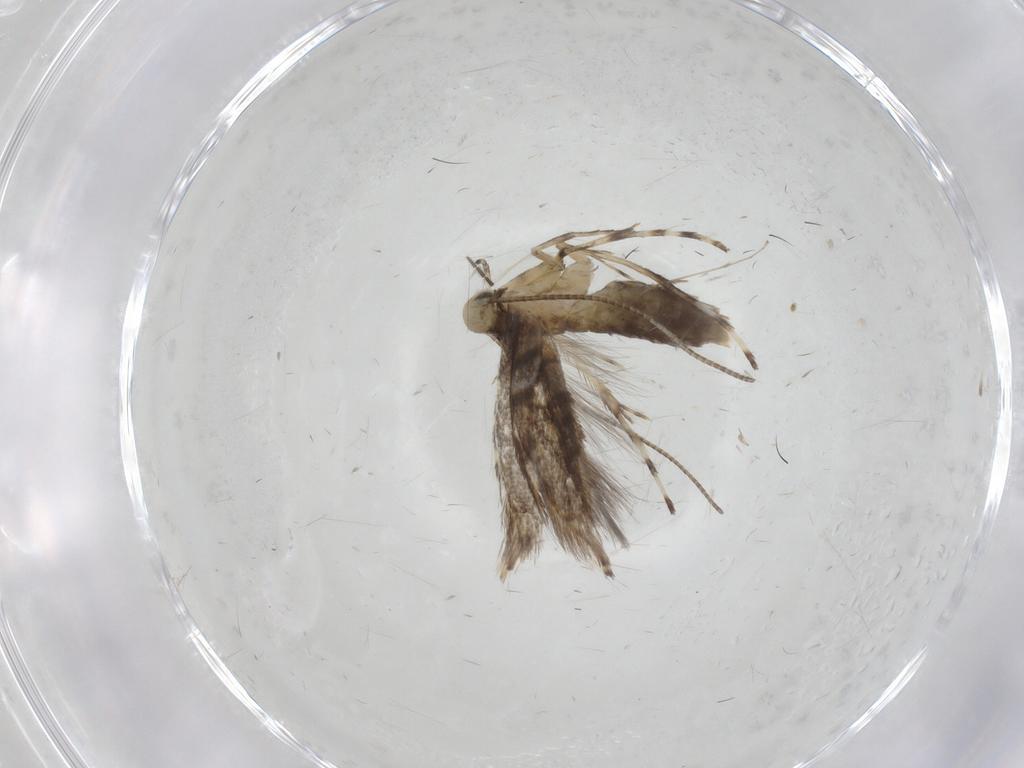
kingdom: Animalia
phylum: Arthropoda
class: Insecta
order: Lepidoptera
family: Gracillariidae
